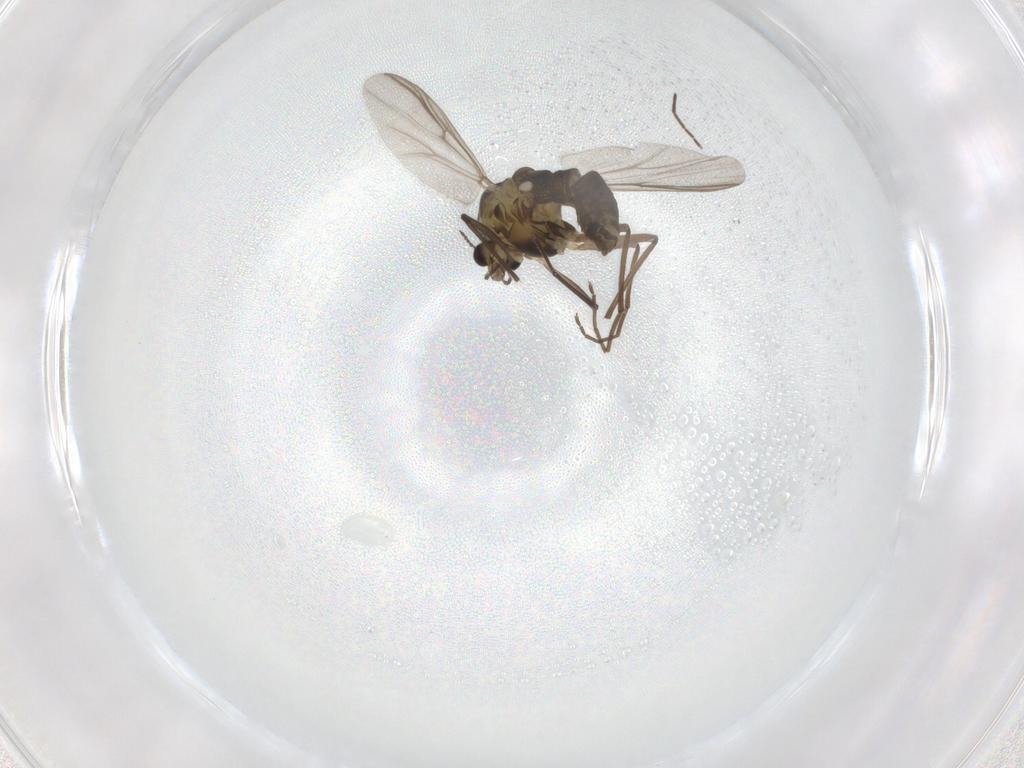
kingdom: Animalia
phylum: Arthropoda
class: Insecta
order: Diptera
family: Chironomidae
